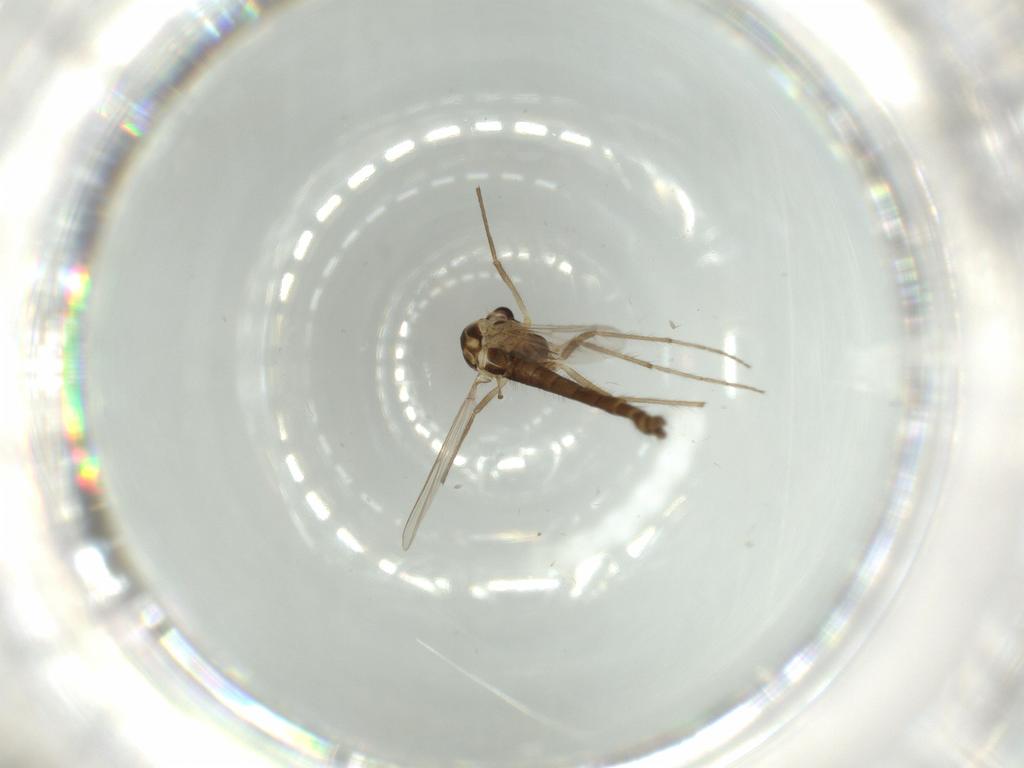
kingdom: Animalia
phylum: Arthropoda
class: Insecta
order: Diptera
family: Cecidomyiidae
